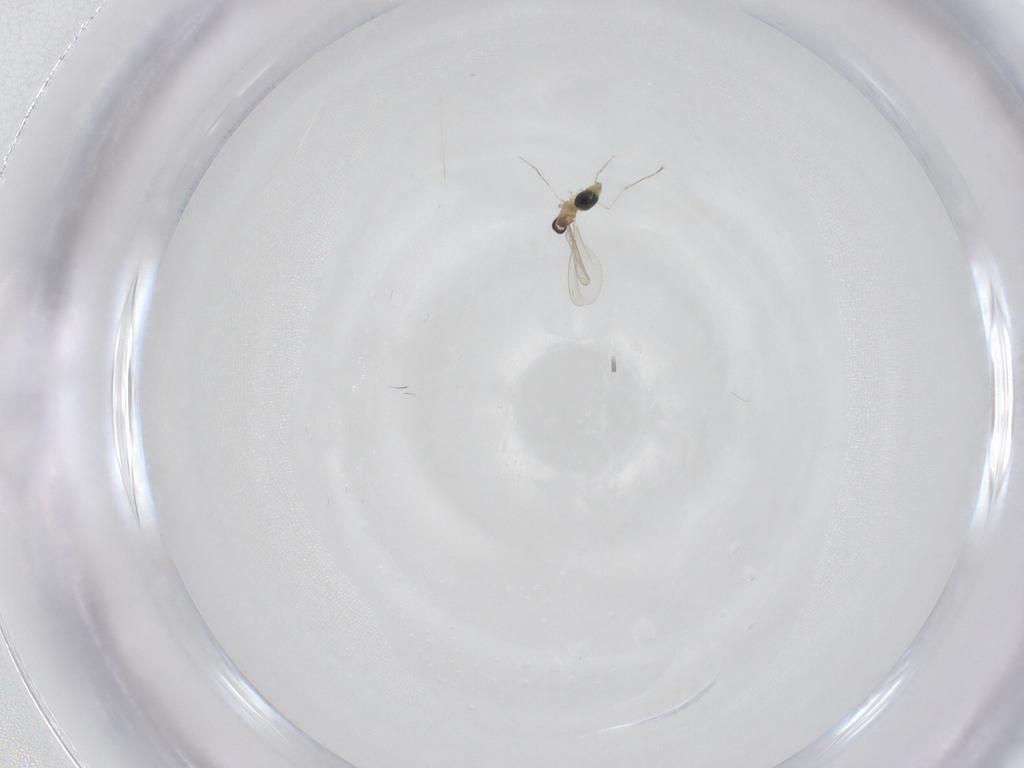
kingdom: Animalia
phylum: Arthropoda
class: Insecta
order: Diptera
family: Cecidomyiidae
